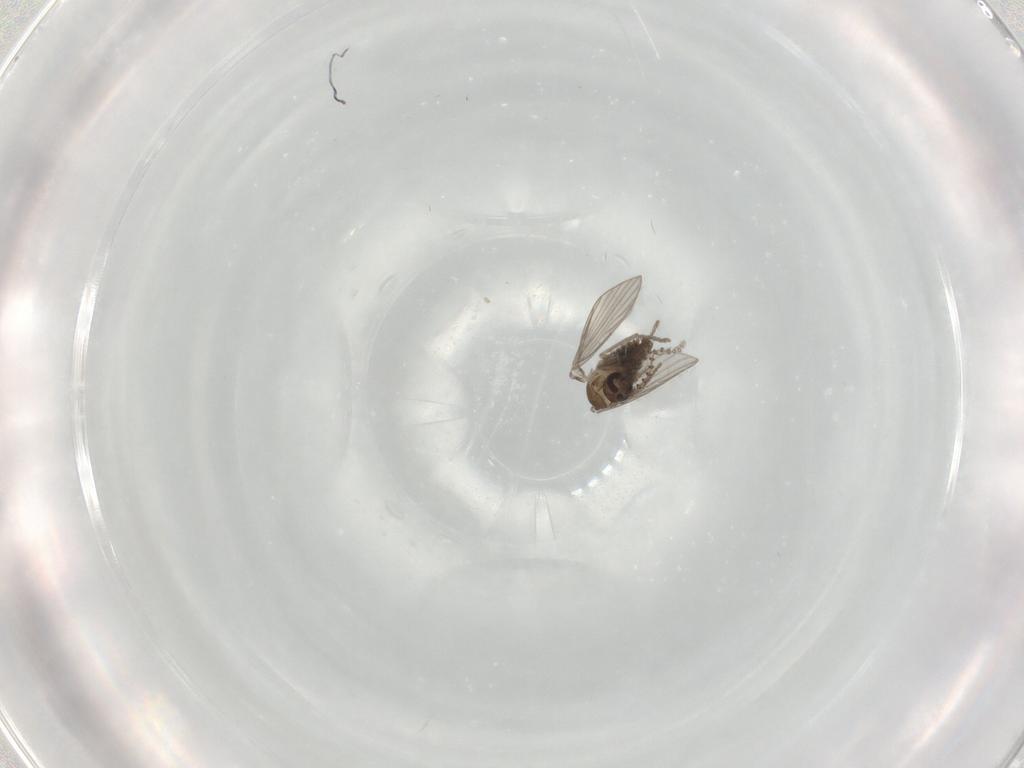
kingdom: Animalia
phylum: Arthropoda
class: Insecta
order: Diptera
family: Psychodidae
